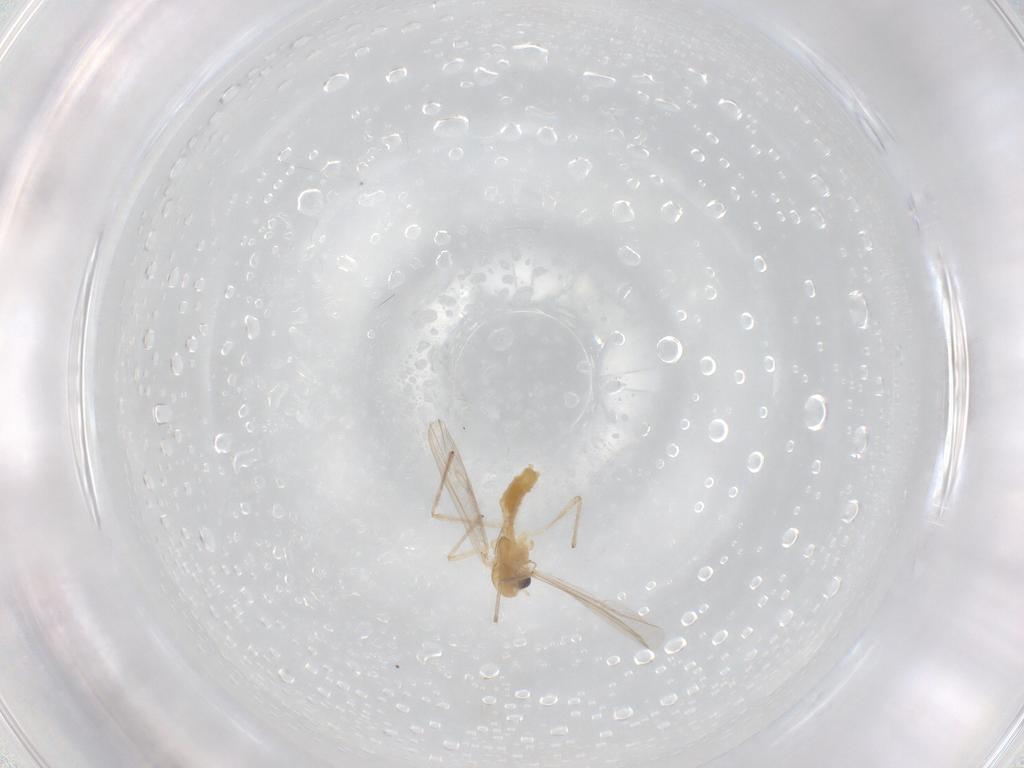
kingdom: Animalia
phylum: Arthropoda
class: Insecta
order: Diptera
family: Chironomidae
